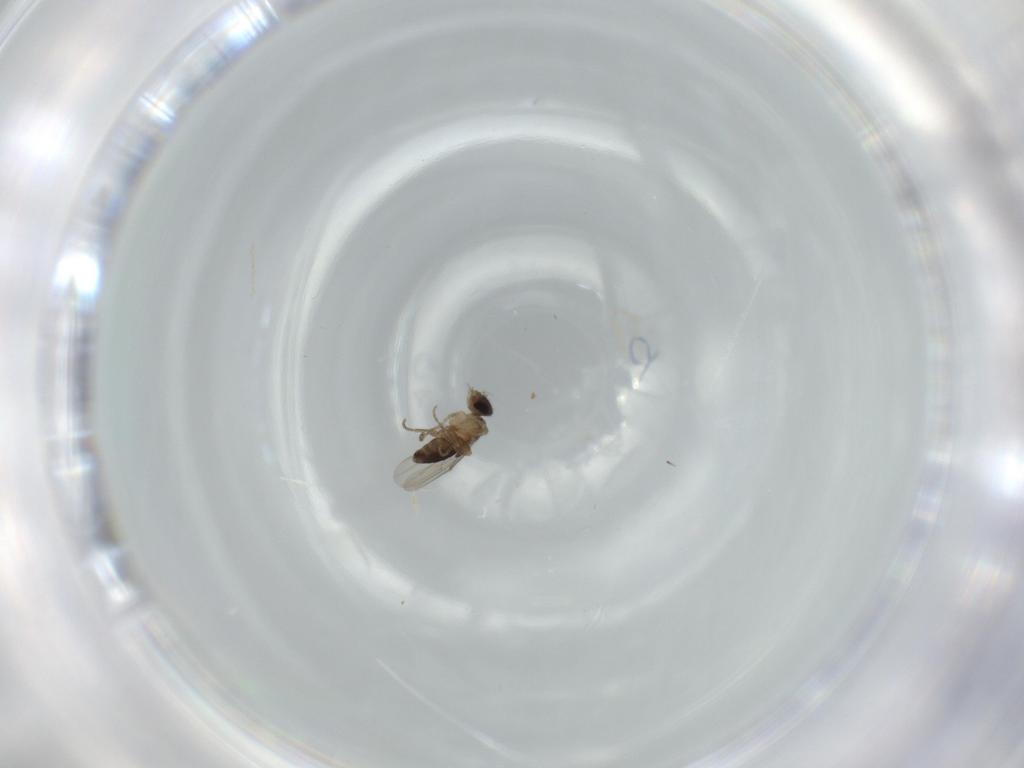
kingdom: Animalia
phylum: Arthropoda
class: Insecta
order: Diptera
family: Phoridae
